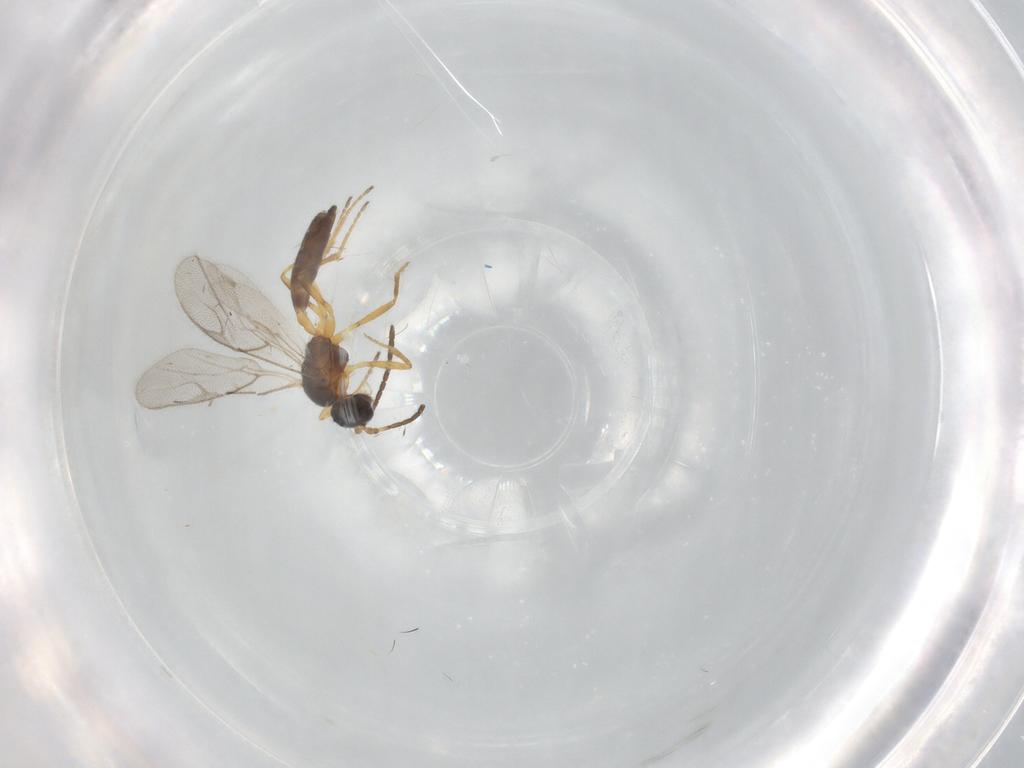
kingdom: Animalia
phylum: Arthropoda
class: Insecta
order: Hymenoptera
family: Braconidae
